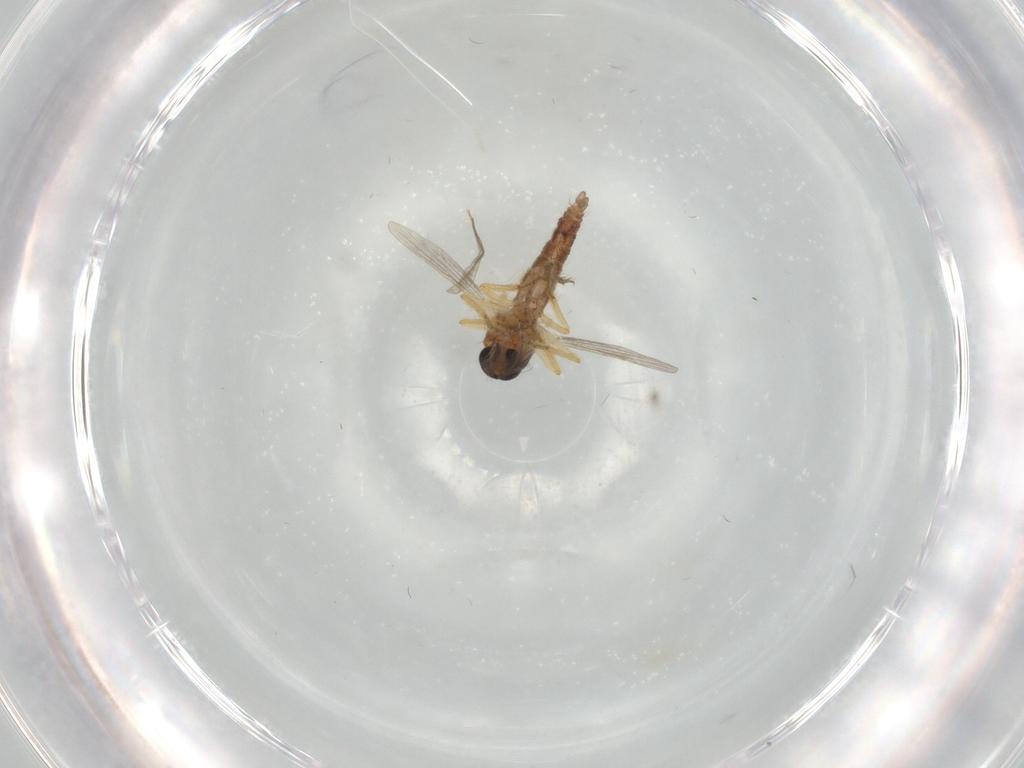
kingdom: Animalia
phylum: Arthropoda
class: Insecta
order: Diptera
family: Ceratopogonidae
